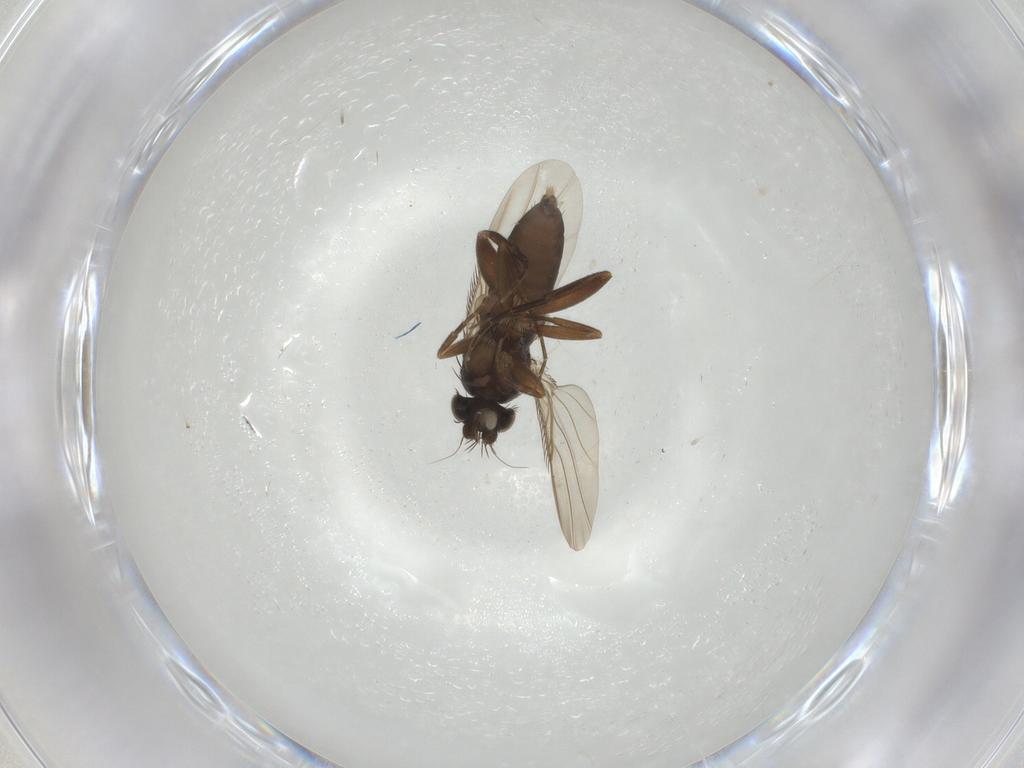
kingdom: Animalia
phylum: Arthropoda
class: Insecta
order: Diptera
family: Phoridae
